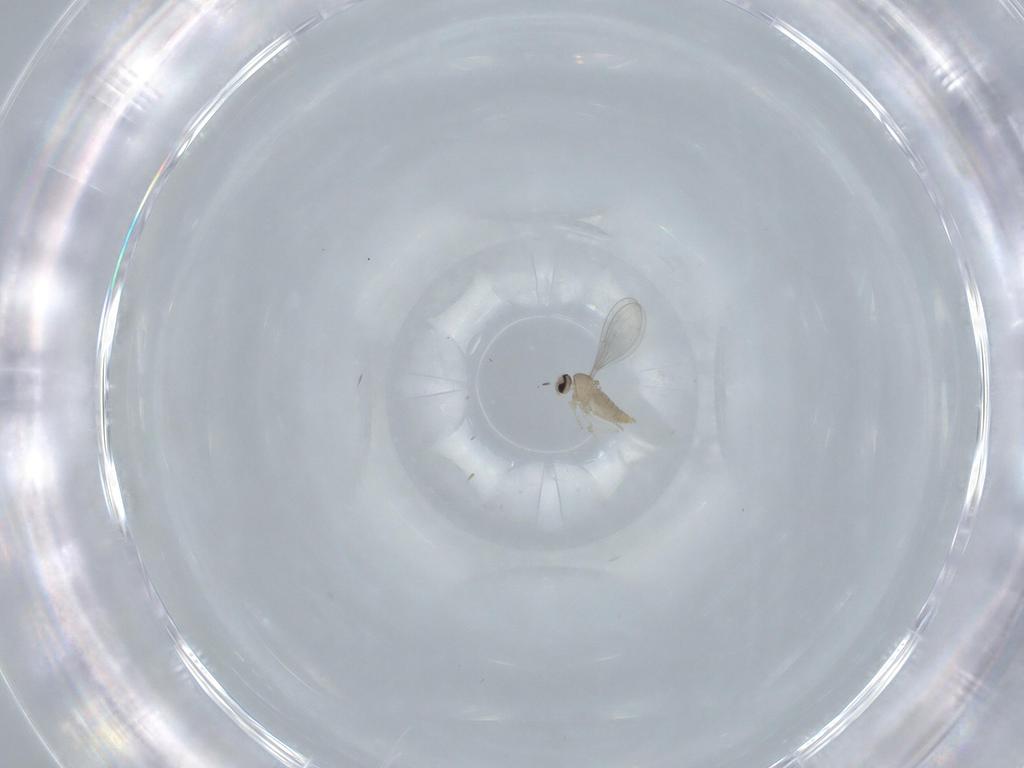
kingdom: Animalia
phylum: Arthropoda
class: Insecta
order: Diptera
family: Cecidomyiidae
